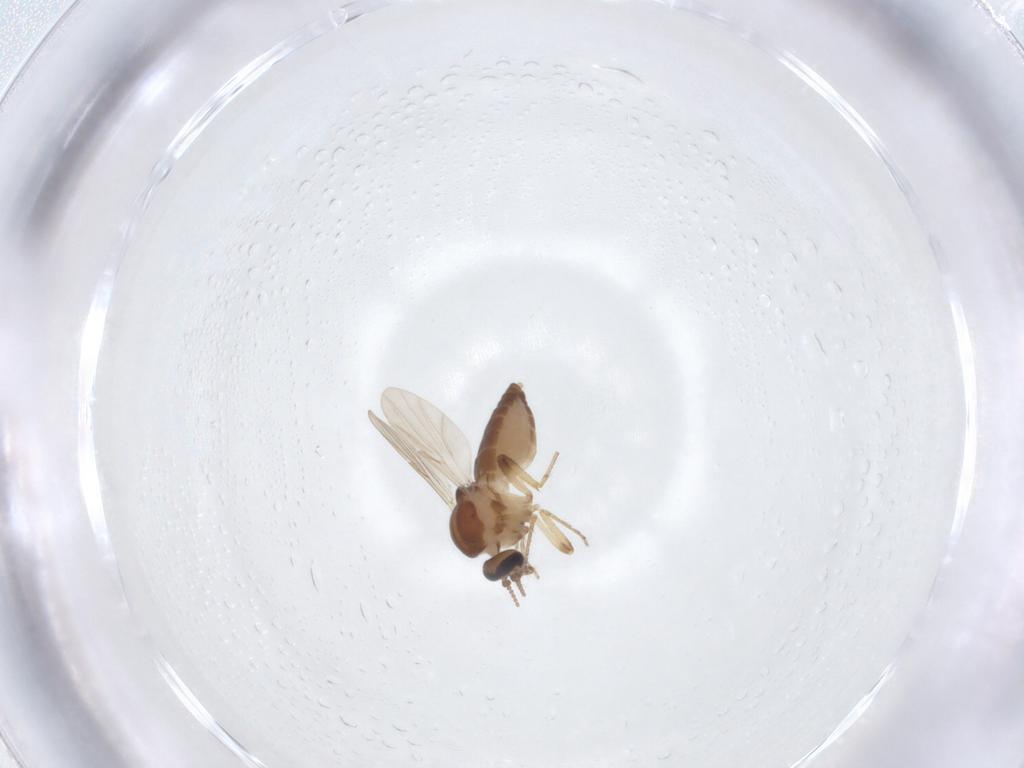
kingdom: Animalia
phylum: Arthropoda
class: Insecta
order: Diptera
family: Ceratopogonidae
